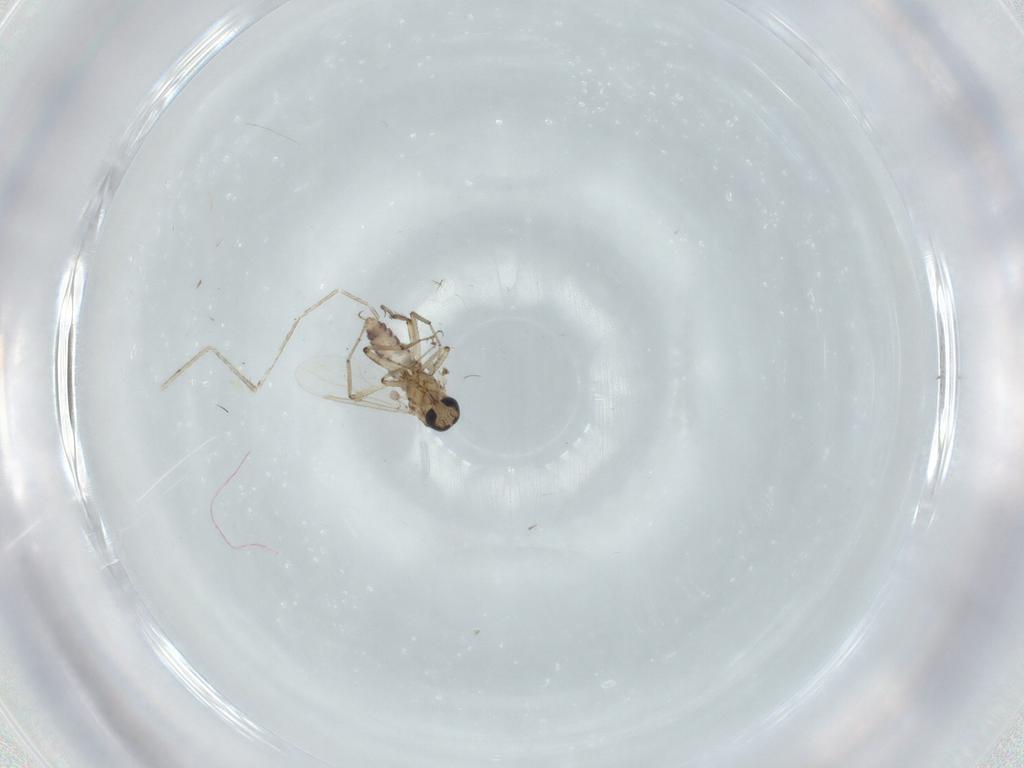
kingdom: Animalia
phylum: Arthropoda
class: Insecta
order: Diptera
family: Ceratopogonidae
